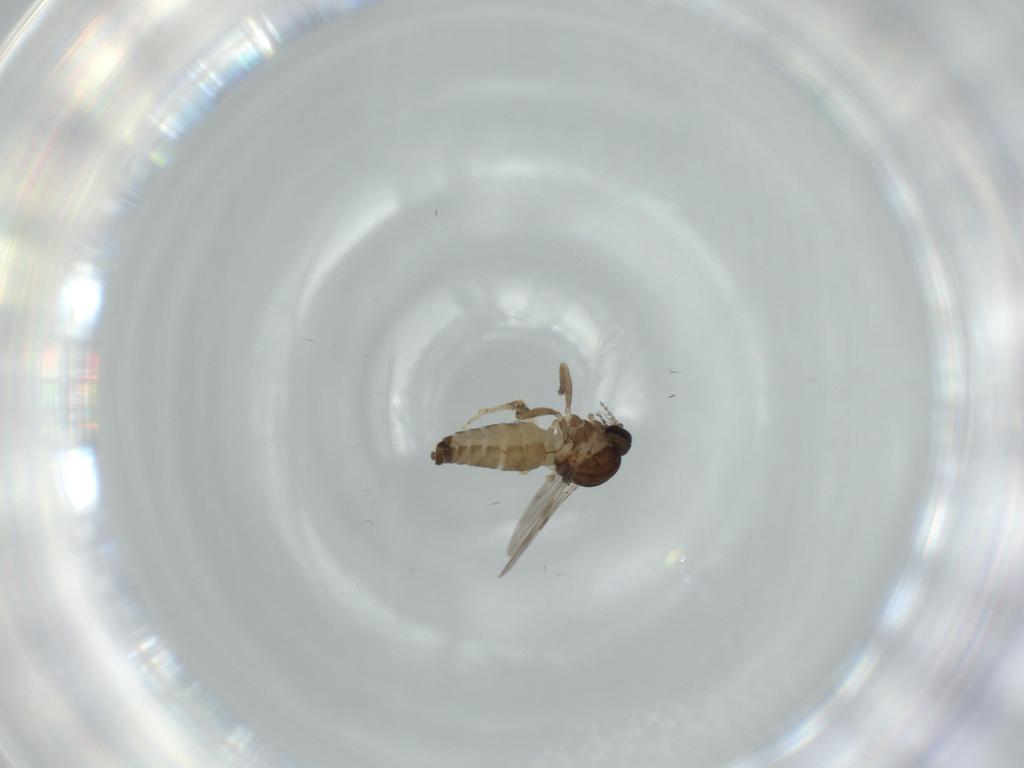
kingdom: Animalia
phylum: Arthropoda
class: Insecta
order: Diptera
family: Ceratopogonidae
